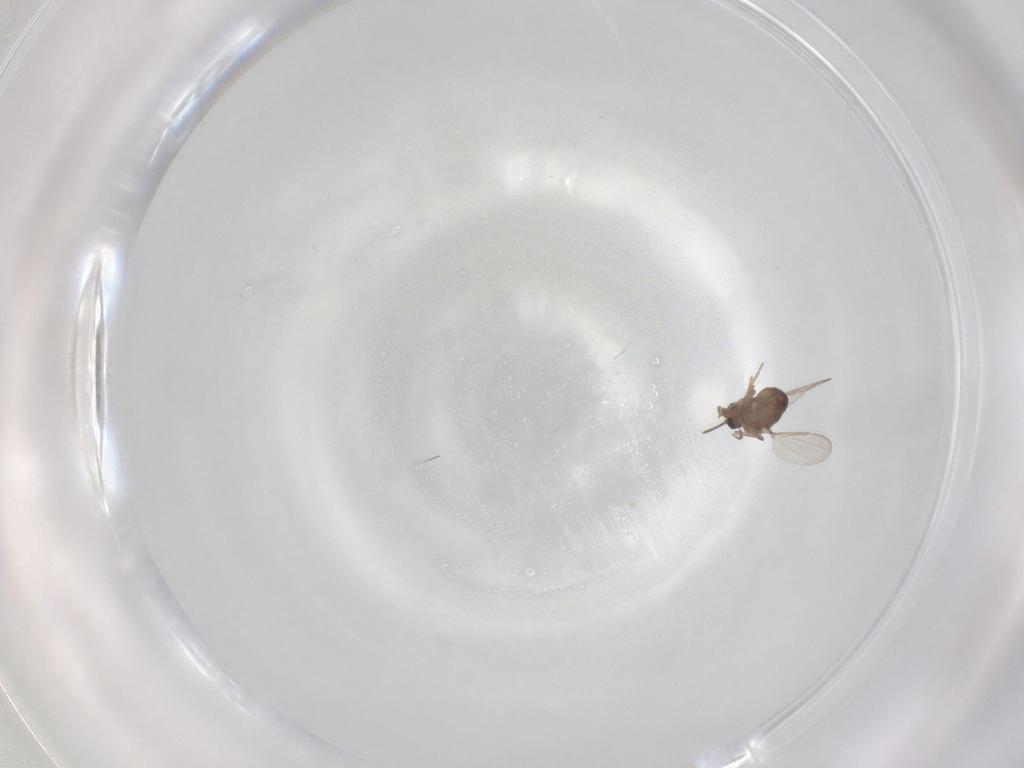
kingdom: Animalia
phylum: Arthropoda
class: Insecta
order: Diptera
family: Ceratopogonidae
